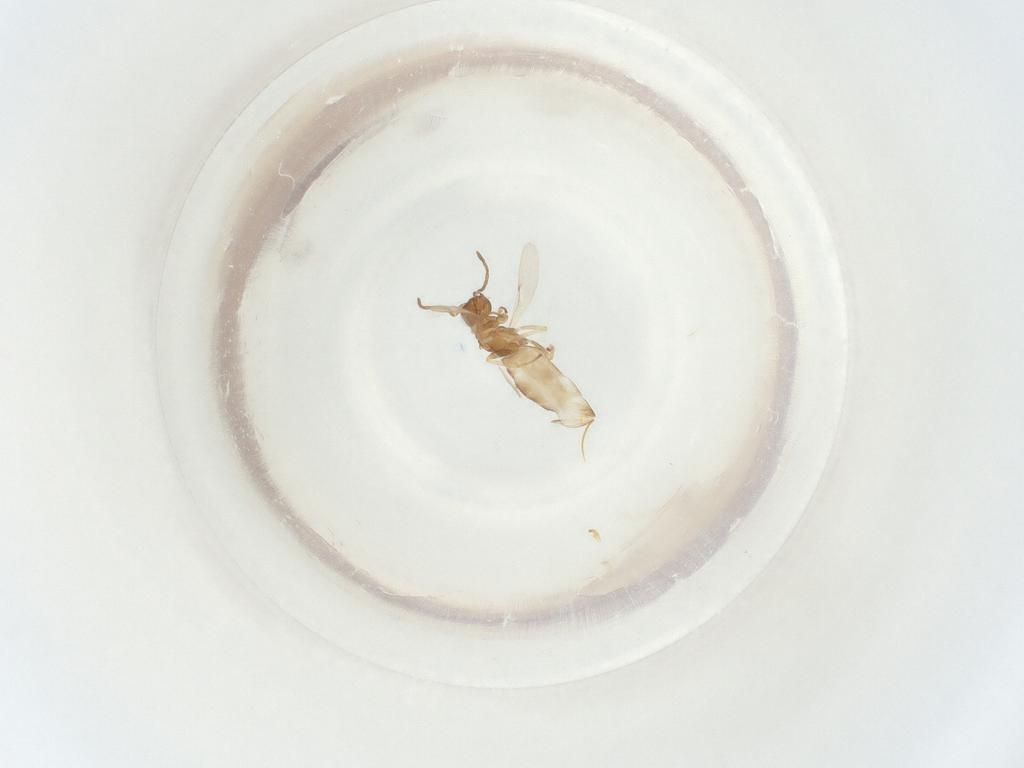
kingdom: Animalia
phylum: Arthropoda
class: Insecta
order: Hymenoptera
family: Encyrtidae
